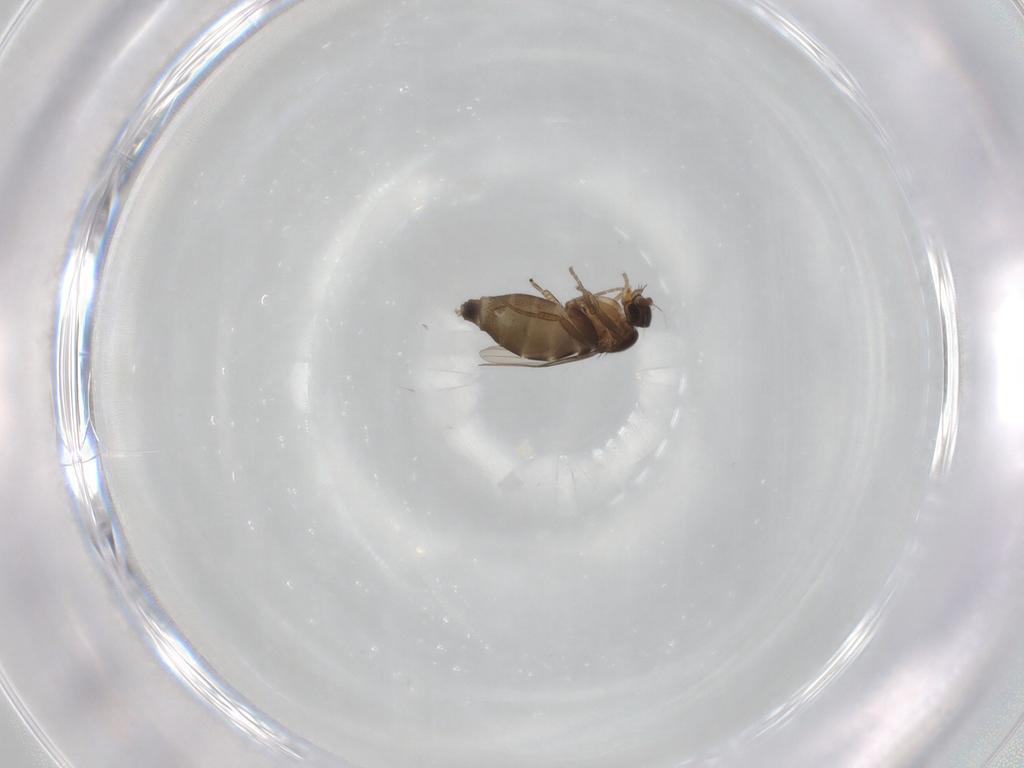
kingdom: Animalia
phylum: Arthropoda
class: Insecta
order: Diptera
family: Phoridae
